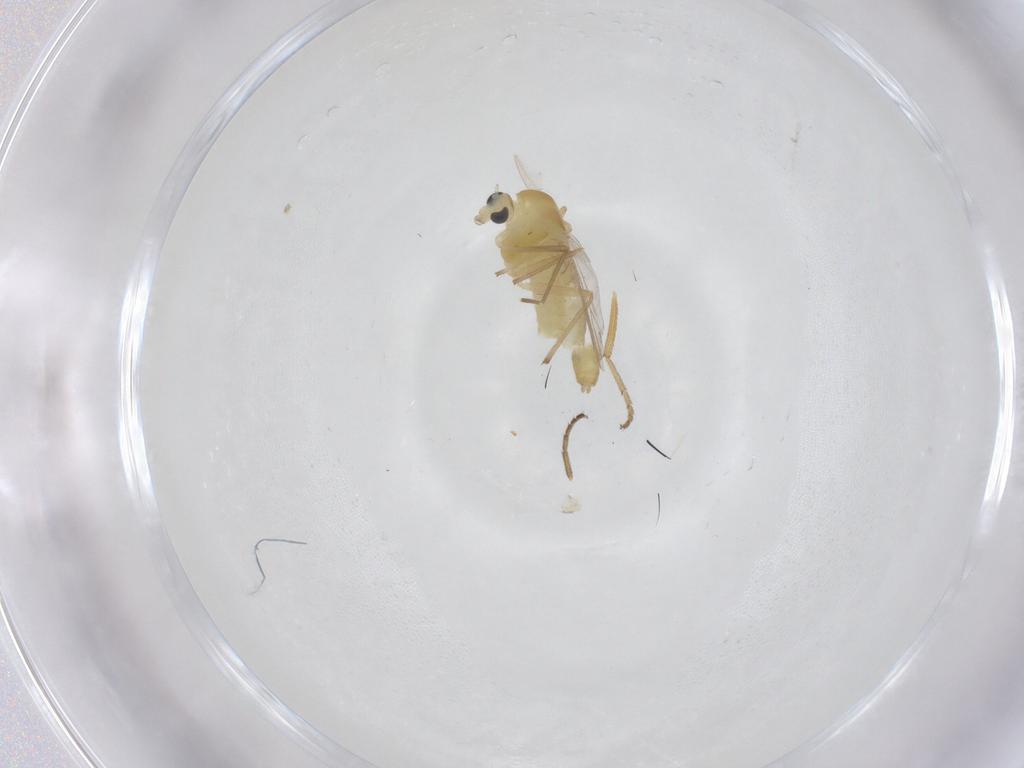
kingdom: Animalia
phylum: Arthropoda
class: Insecta
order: Diptera
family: Chironomidae
